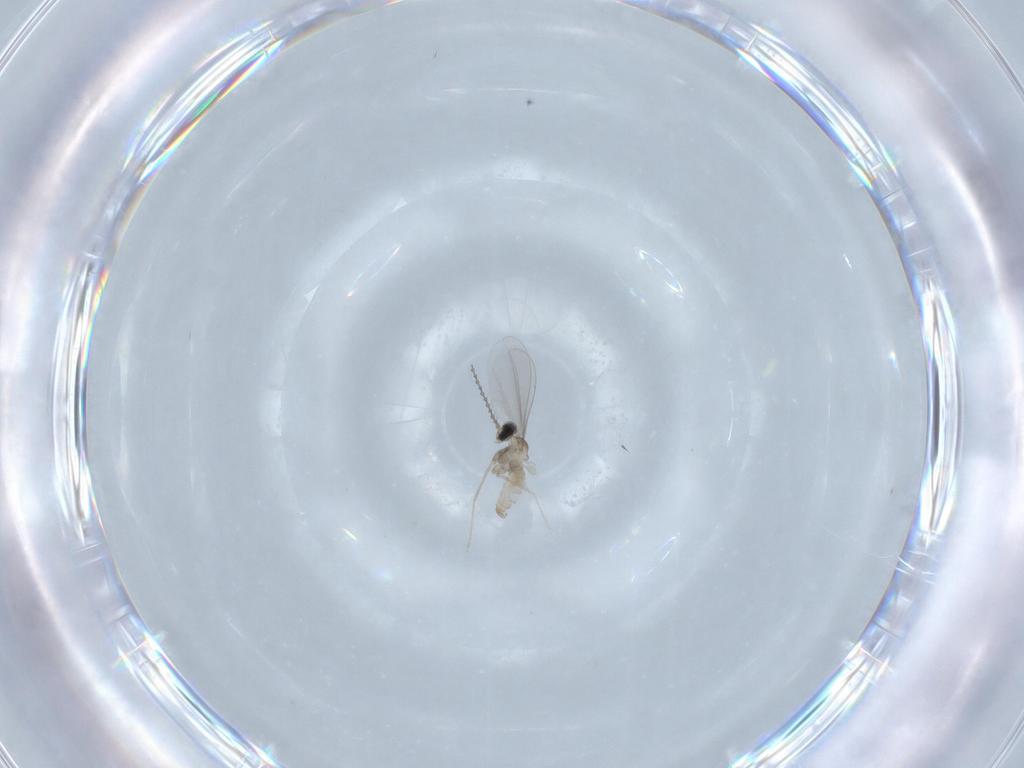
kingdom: Animalia
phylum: Arthropoda
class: Insecta
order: Diptera
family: Cecidomyiidae
